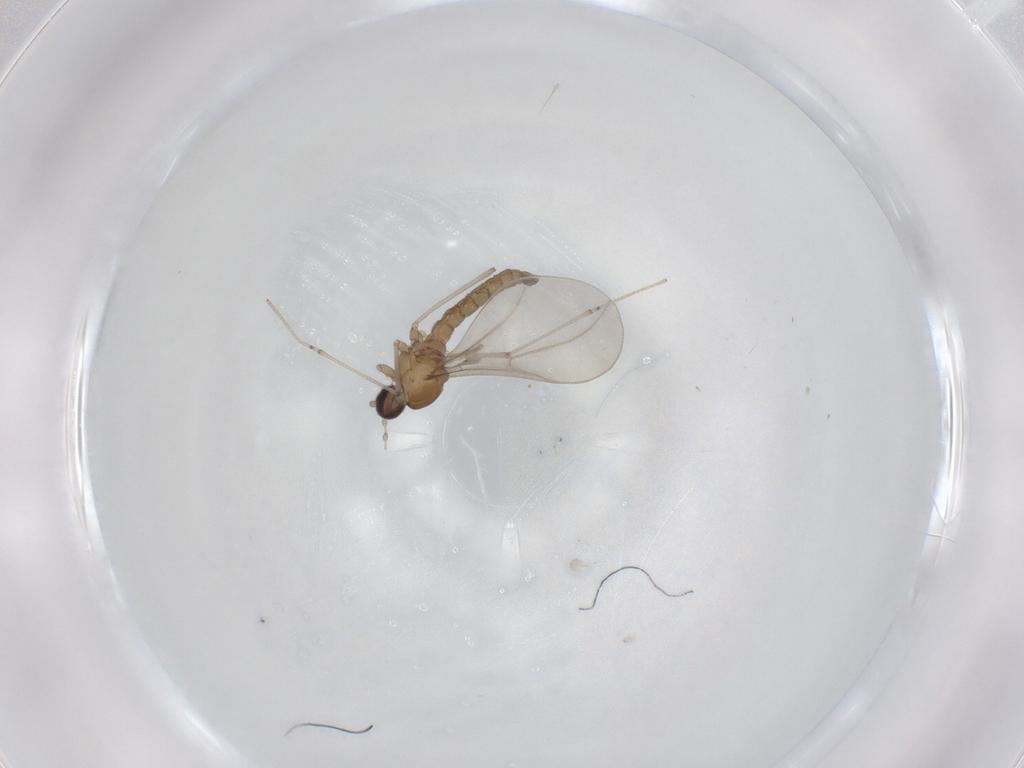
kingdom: Animalia
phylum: Arthropoda
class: Insecta
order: Diptera
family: Cecidomyiidae
